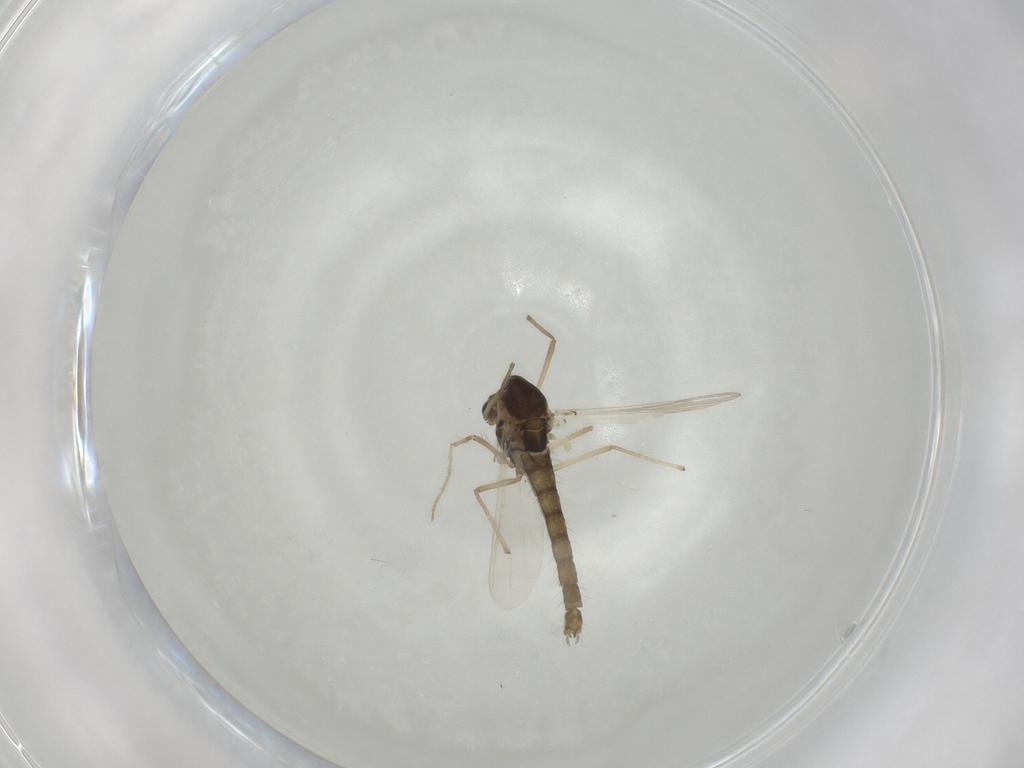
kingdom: Animalia
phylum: Arthropoda
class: Insecta
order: Diptera
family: Chironomidae
